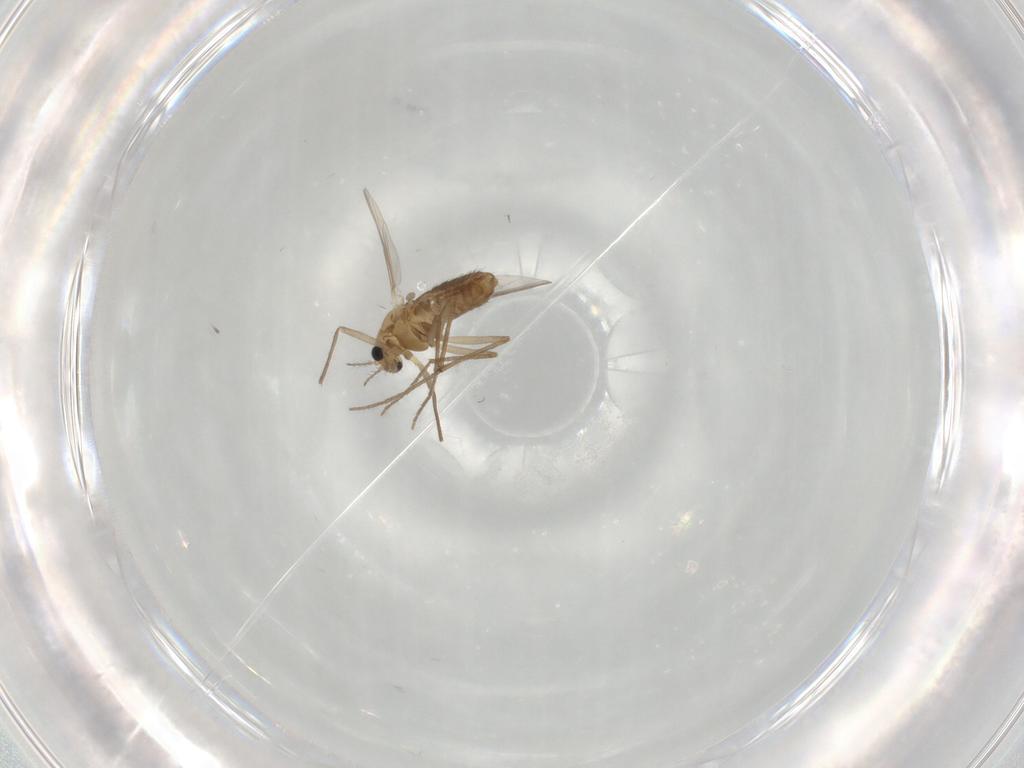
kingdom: Animalia
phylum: Arthropoda
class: Insecta
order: Diptera
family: Chironomidae
